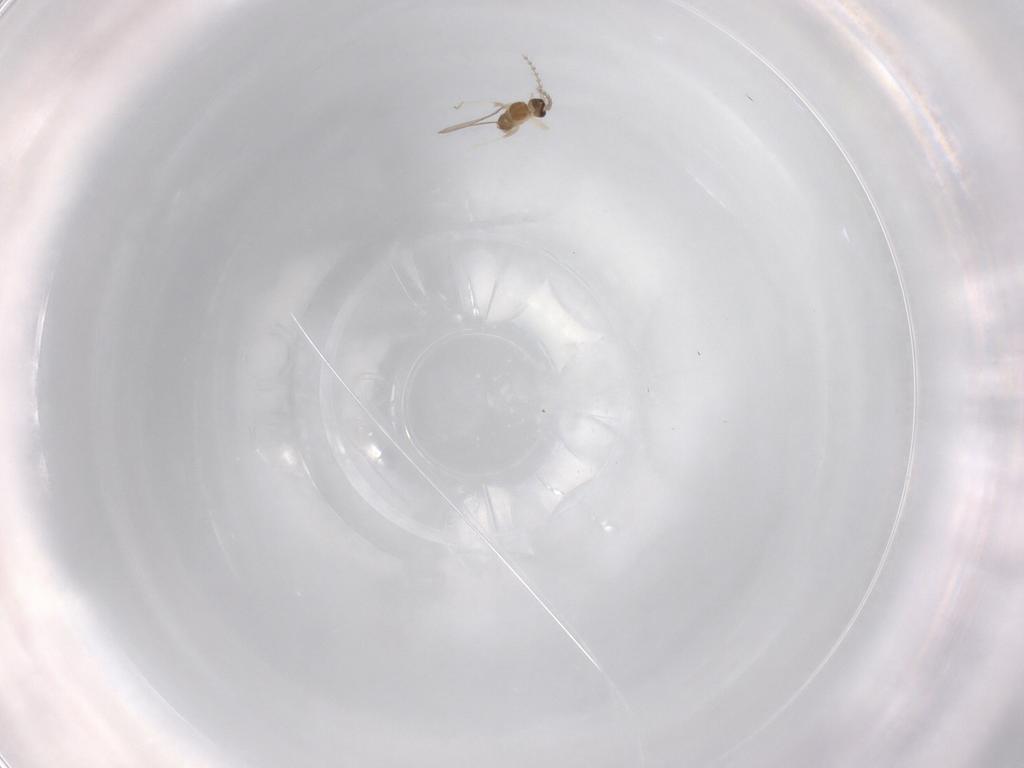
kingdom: Animalia
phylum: Arthropoda
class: Insecta
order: Diptera
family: Cecidomyiidae
